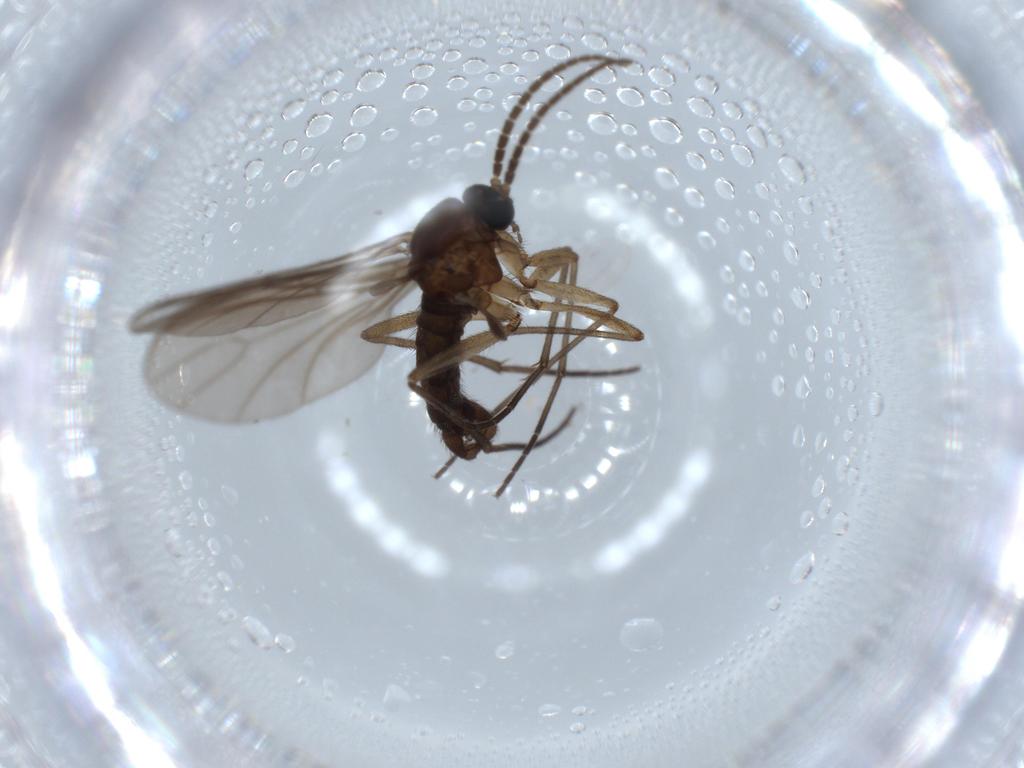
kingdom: Animalia
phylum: Arthropoda
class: Insecta
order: Diptera
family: Sciaridae
